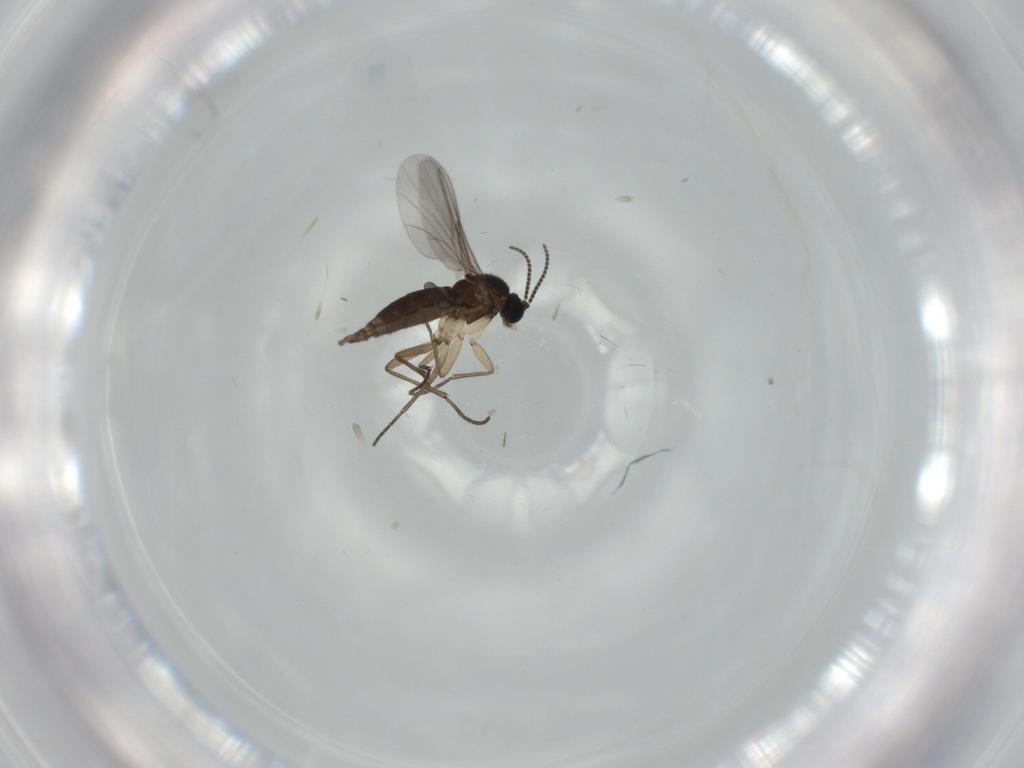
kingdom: Animalia
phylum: Arthropoda
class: Insecta
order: Diptera
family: Sciaridae
